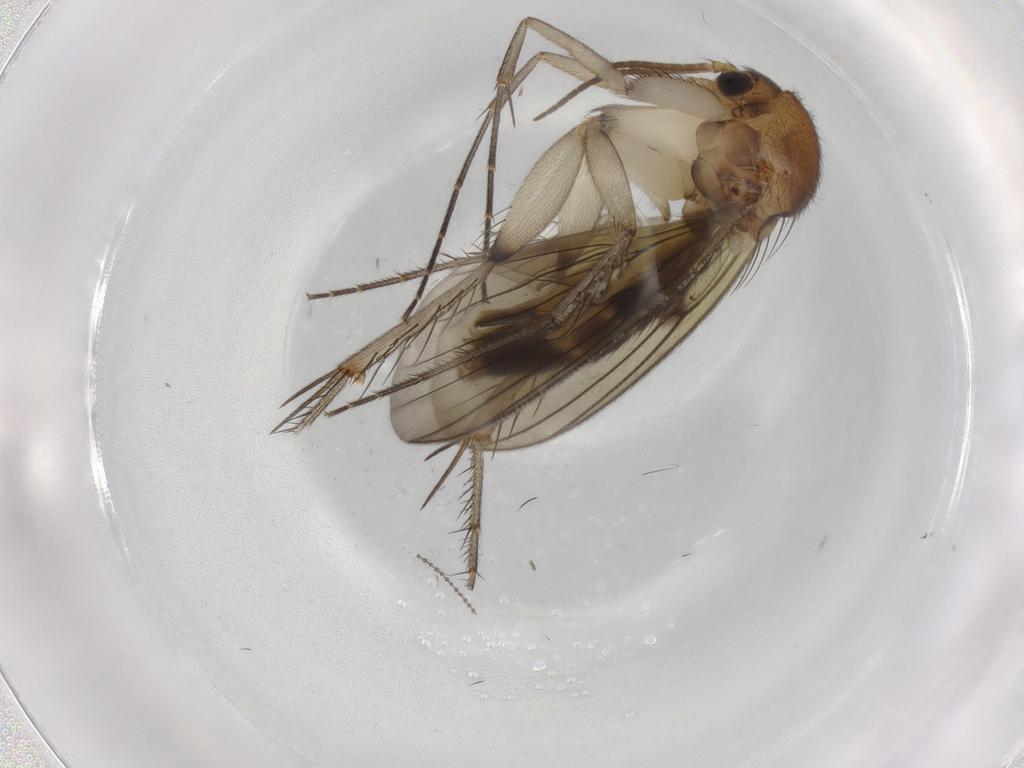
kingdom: Animalia
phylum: Arthropoda
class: Insecta
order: Diptera
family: Mycetophilidae
